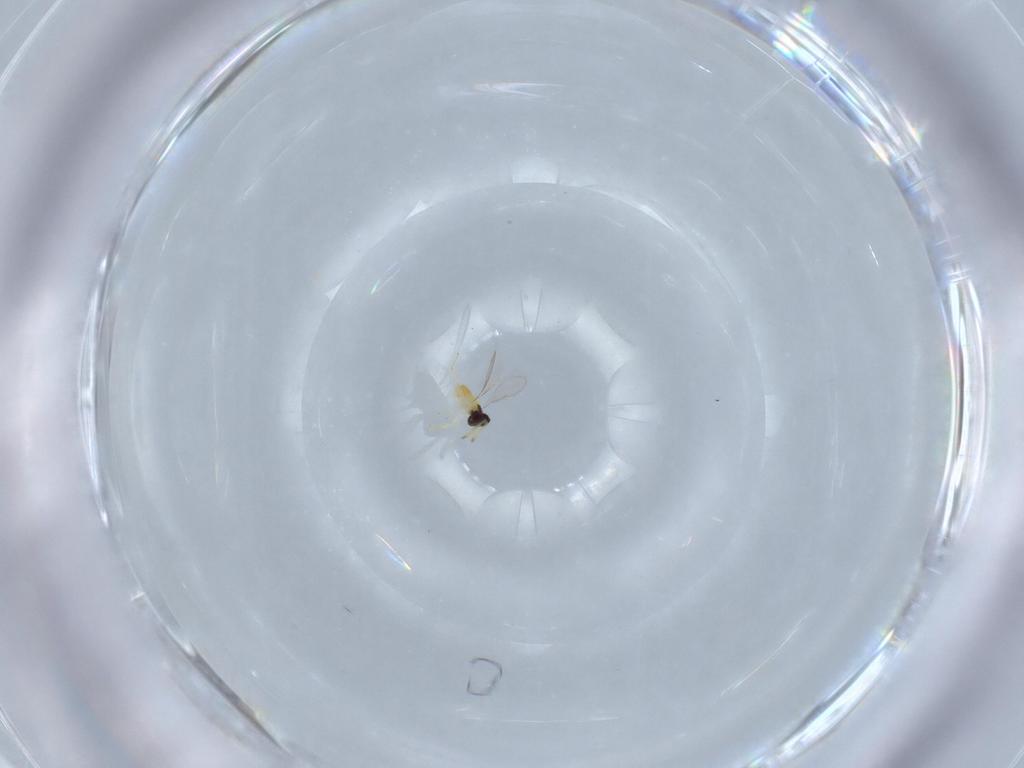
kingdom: Animalia
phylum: Arthropoda
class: Insecta
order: Hymenoptera
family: Aphelinidae
